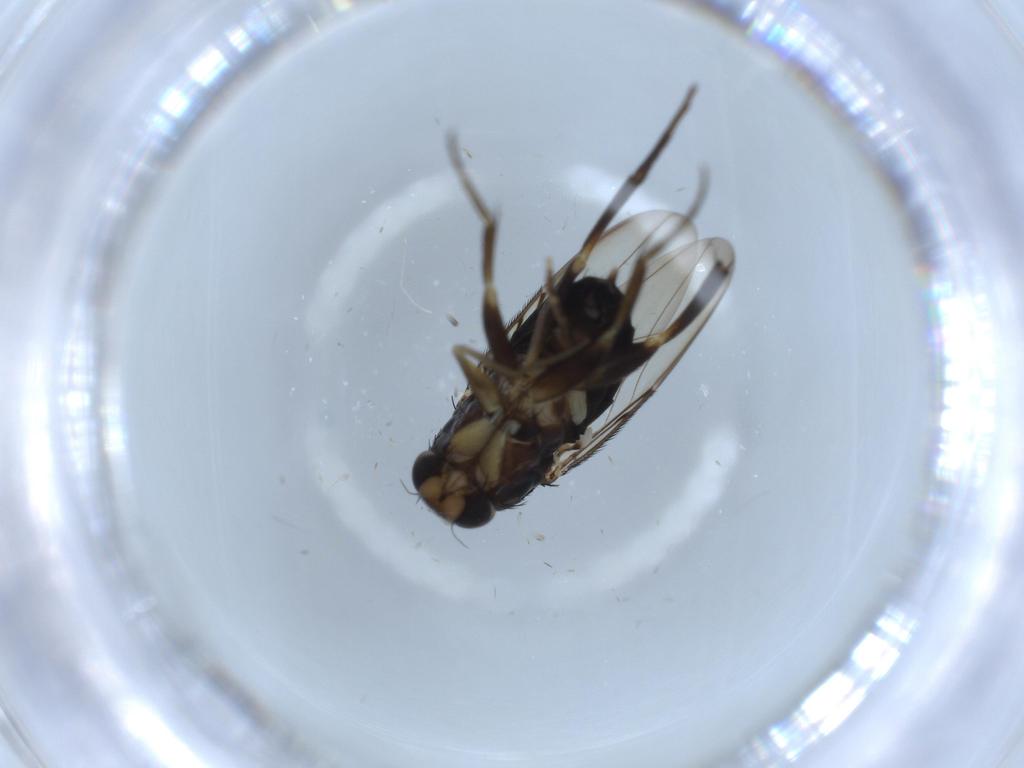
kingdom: Animalia
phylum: Arthropoda
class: Insecta
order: Diptera
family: Phoridae
